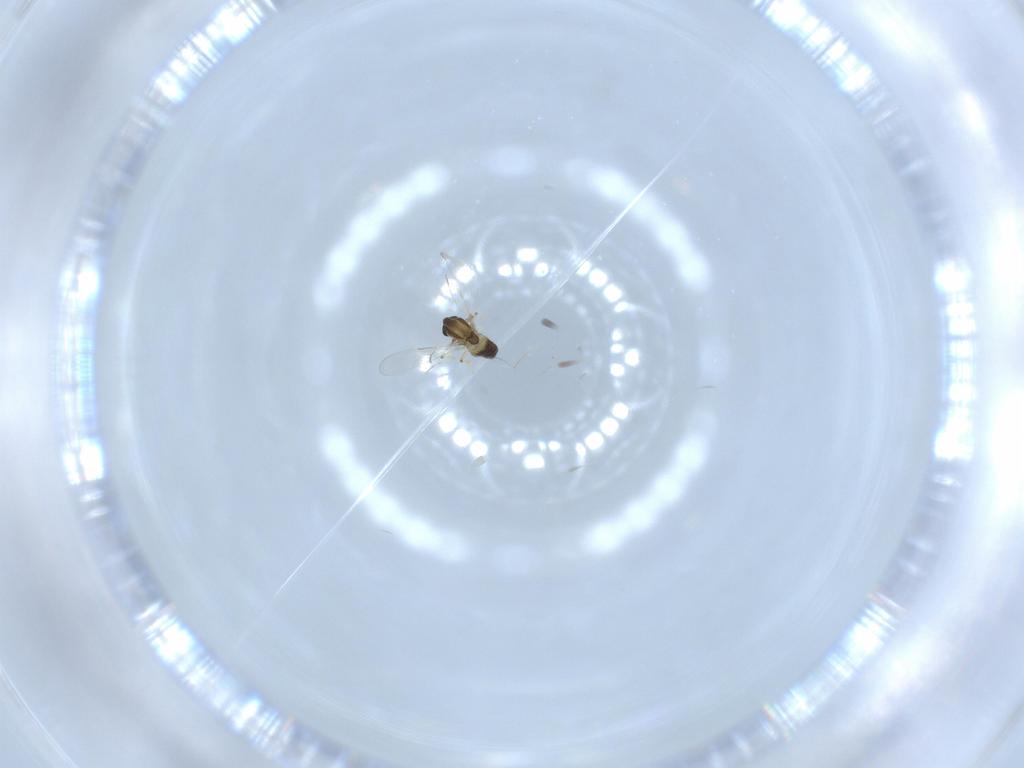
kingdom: Animalia
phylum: Arthropoda
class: Insecta
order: Diptera
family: Chironomidae
